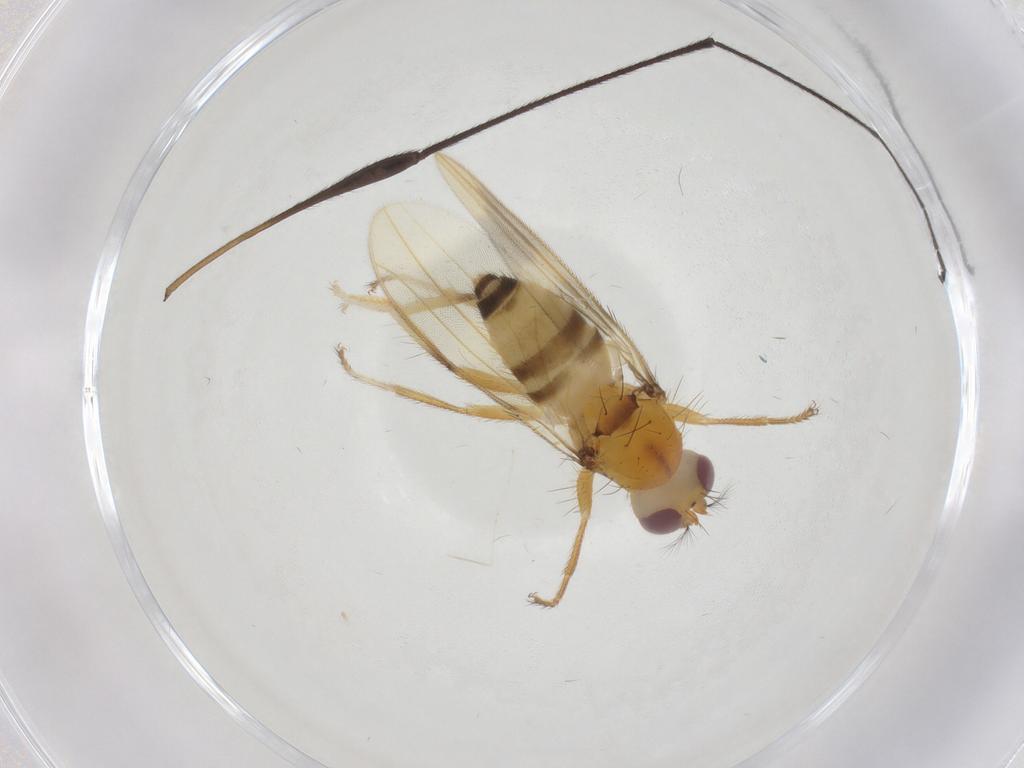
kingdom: Animalia
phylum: Arthropoda
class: Insecta
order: Diptera
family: Periscelididae
